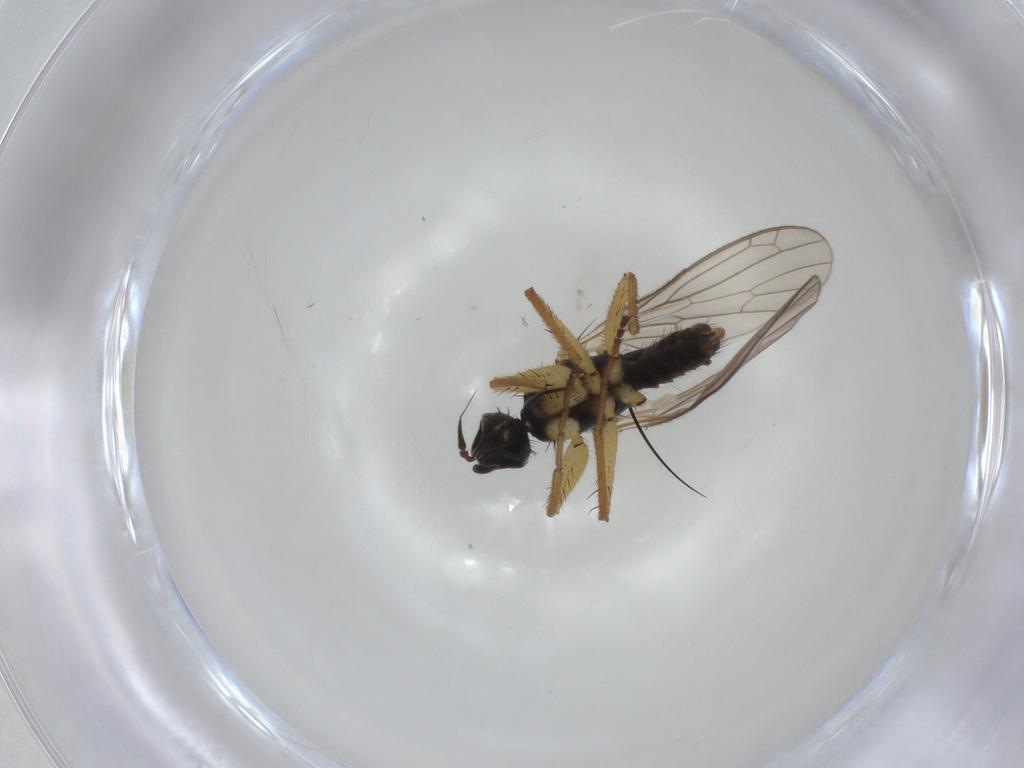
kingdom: Animalia
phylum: Arthropoda
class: Insecta
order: Diptera
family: Empididae
